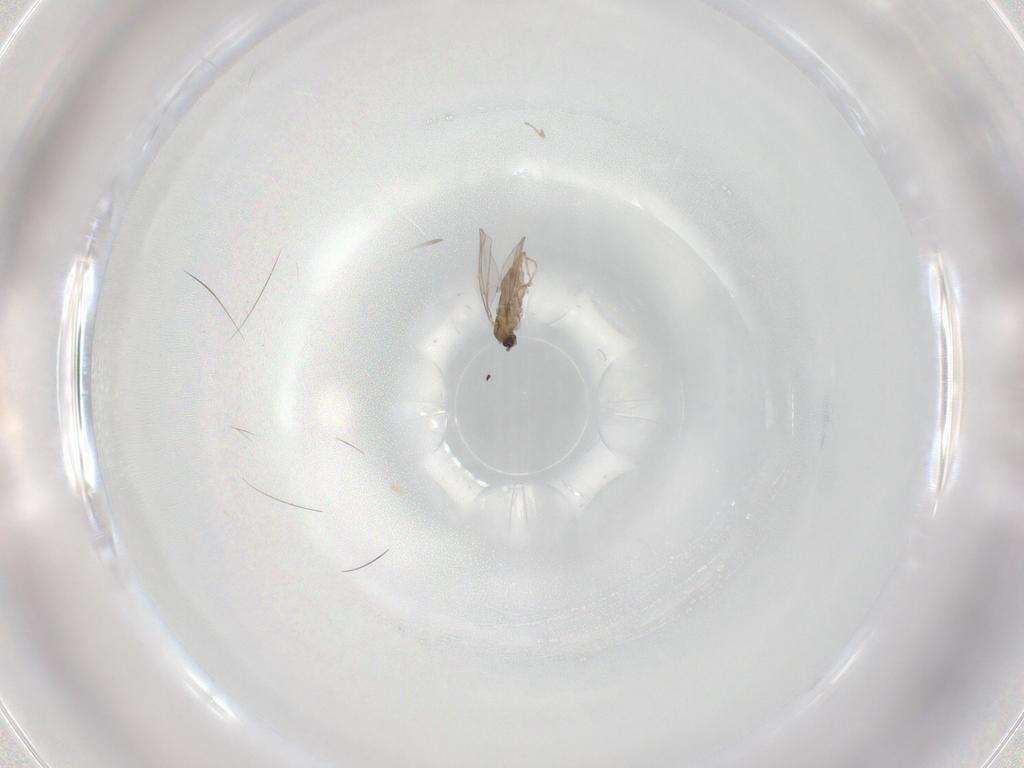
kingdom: Animalia
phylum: Arthropoda
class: Insecta
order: Diptera
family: Cecidomyiidae
